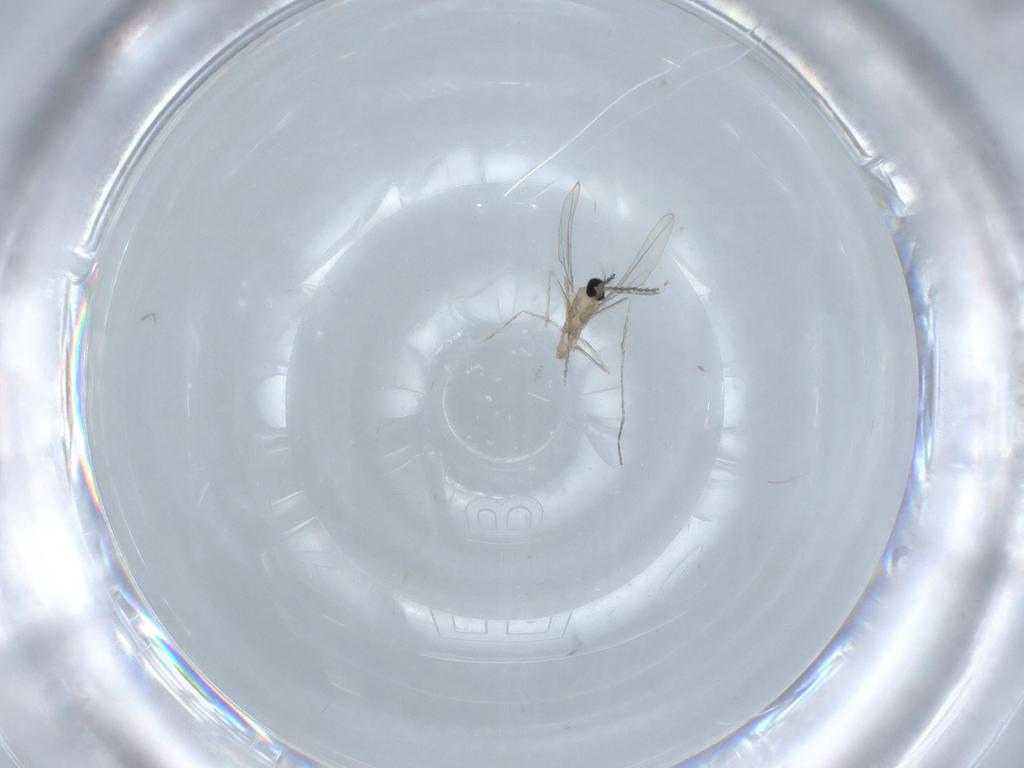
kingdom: Animalia
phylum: Arthropoda
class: Insecta
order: Diptera
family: Cecidomyiidae
